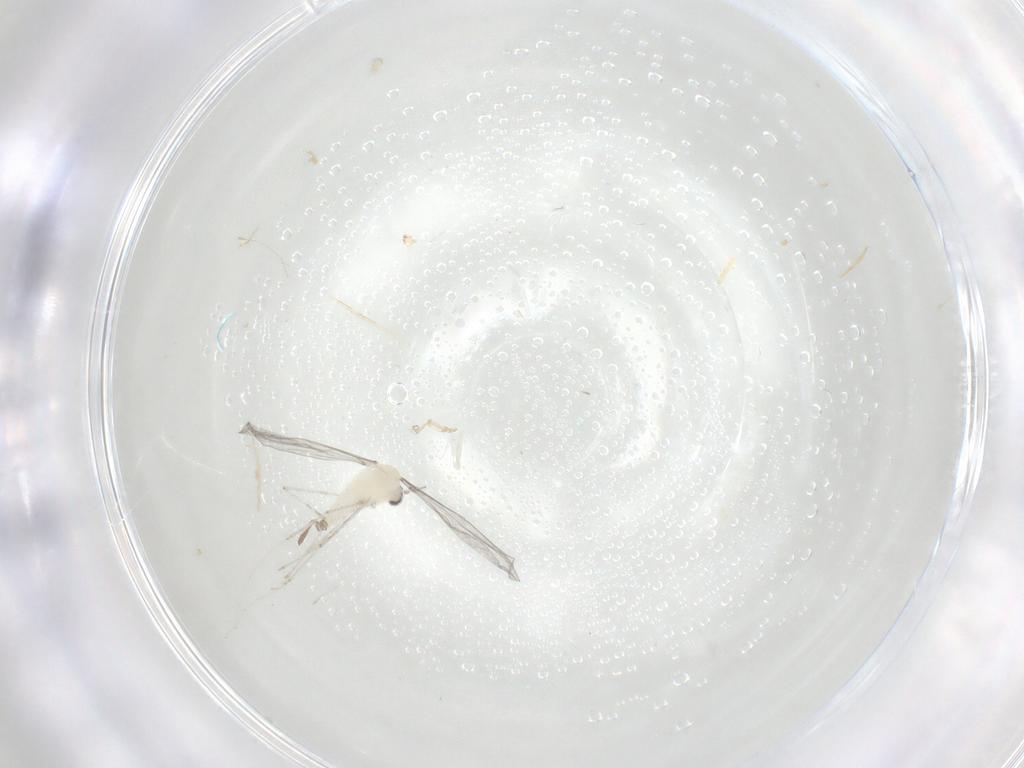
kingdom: Animalia
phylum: Arthropoda
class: Insecta
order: Diptera
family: Cecidomyiidae
